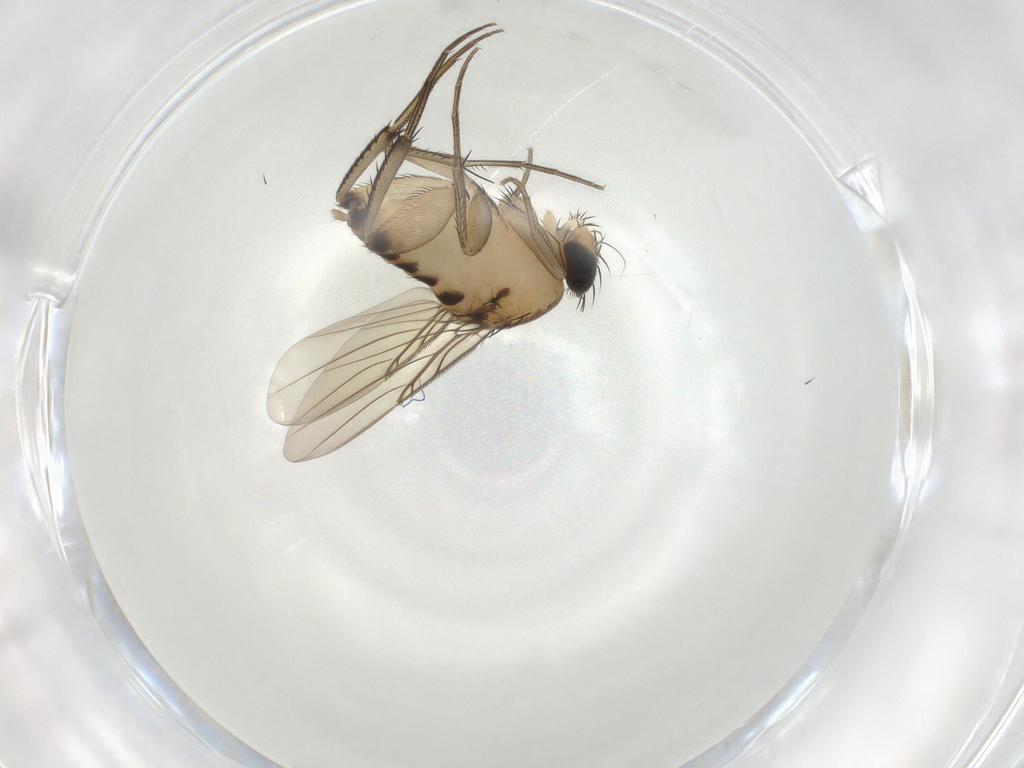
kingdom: Animalia
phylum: Arthropoda
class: Insecta
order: Diptera
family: Phoridae
